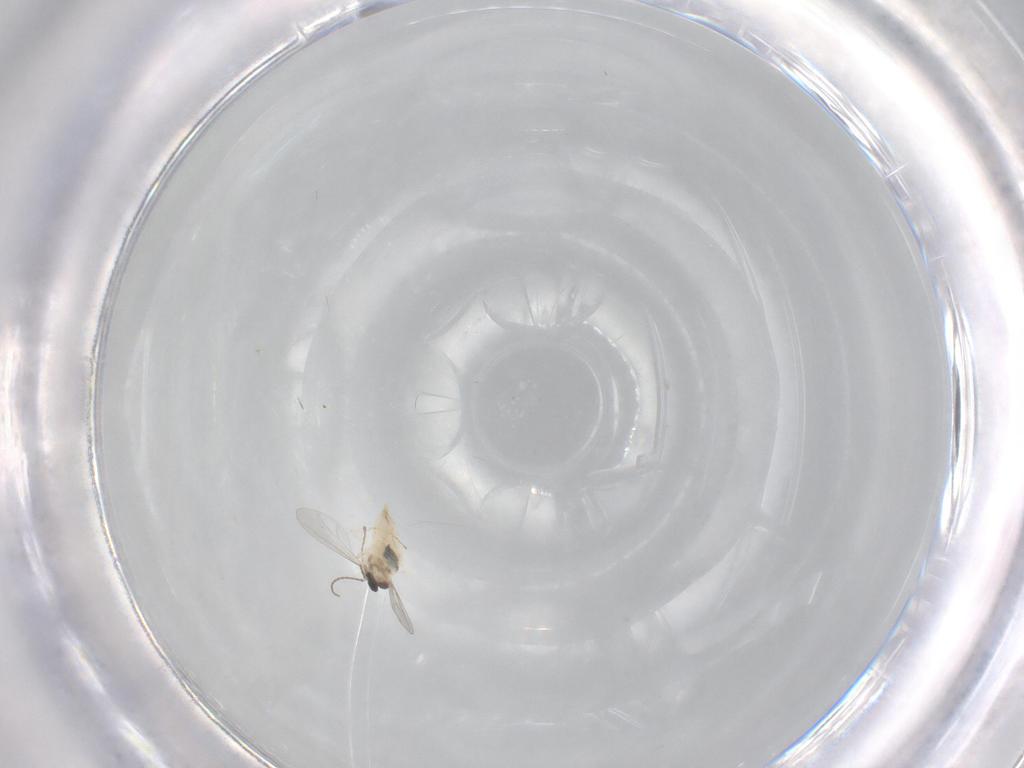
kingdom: Animalia
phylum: Arthropoda
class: Insecta
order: Diptera
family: Cecidomyiidae
